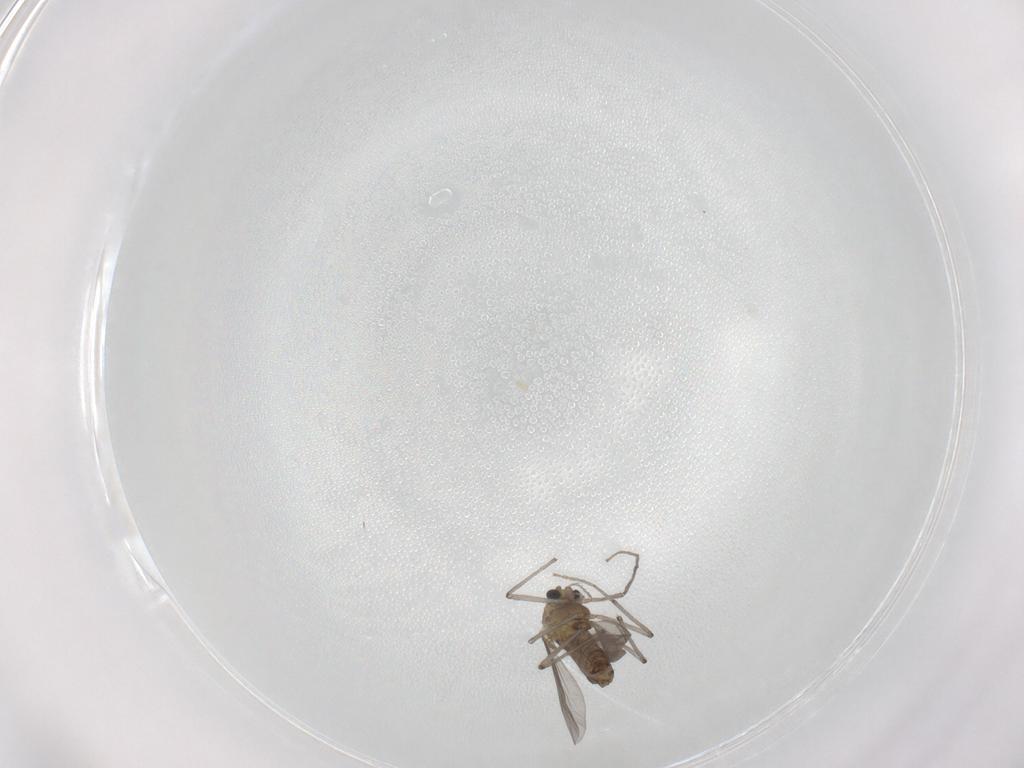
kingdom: Animalia
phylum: Arthropoda
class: Insecta
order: Diptera
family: Chironomidae
